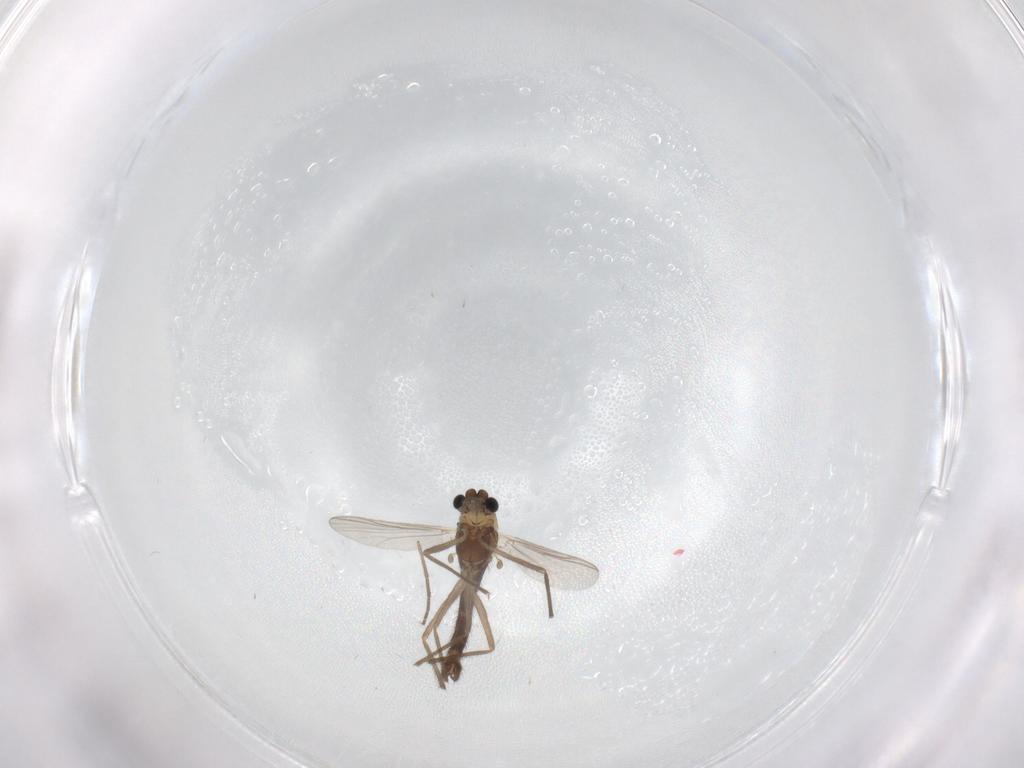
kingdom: Animalia
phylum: Arthropoda
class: Insecta
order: Diptera
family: Chironomidae
